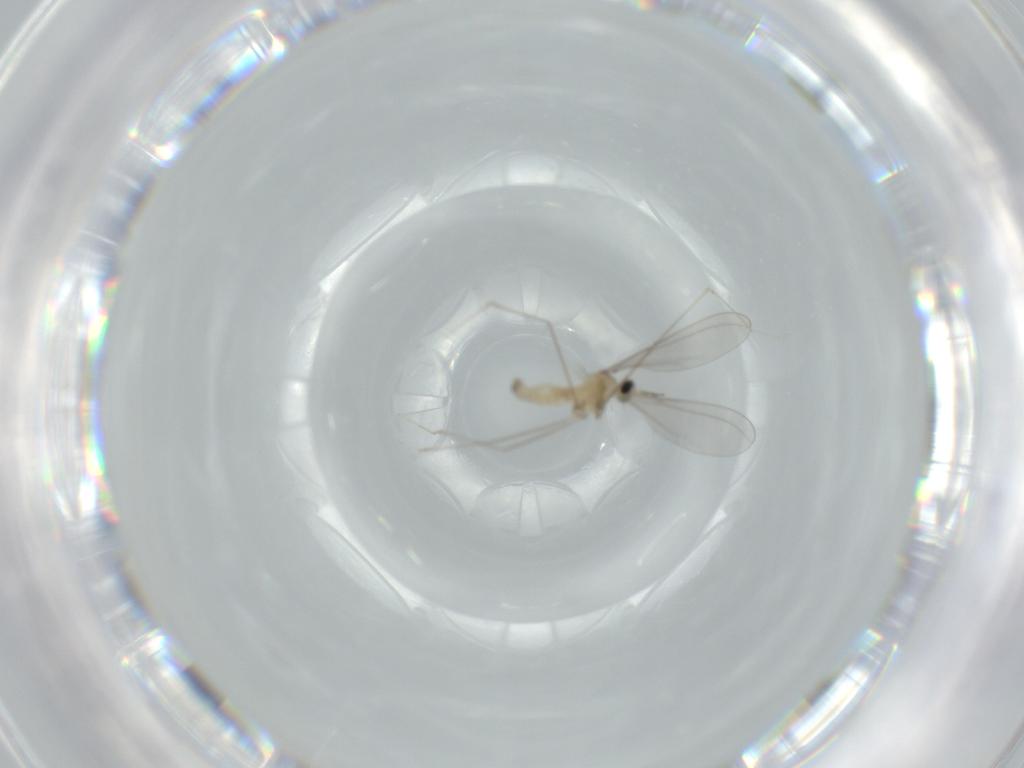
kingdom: Animalia
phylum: Arthropoda
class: Insecta
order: Diptera
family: Cecidomyiidae
